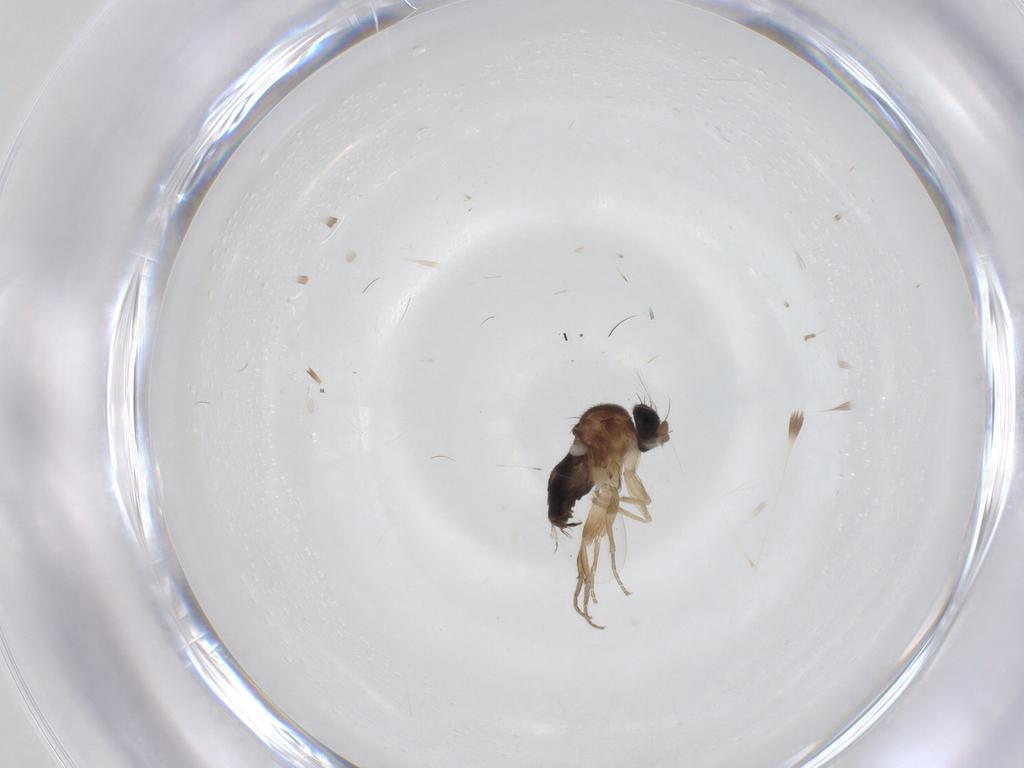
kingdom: Animalia
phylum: Arthropoda
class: Insecta
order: Diptera
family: Phoridae
